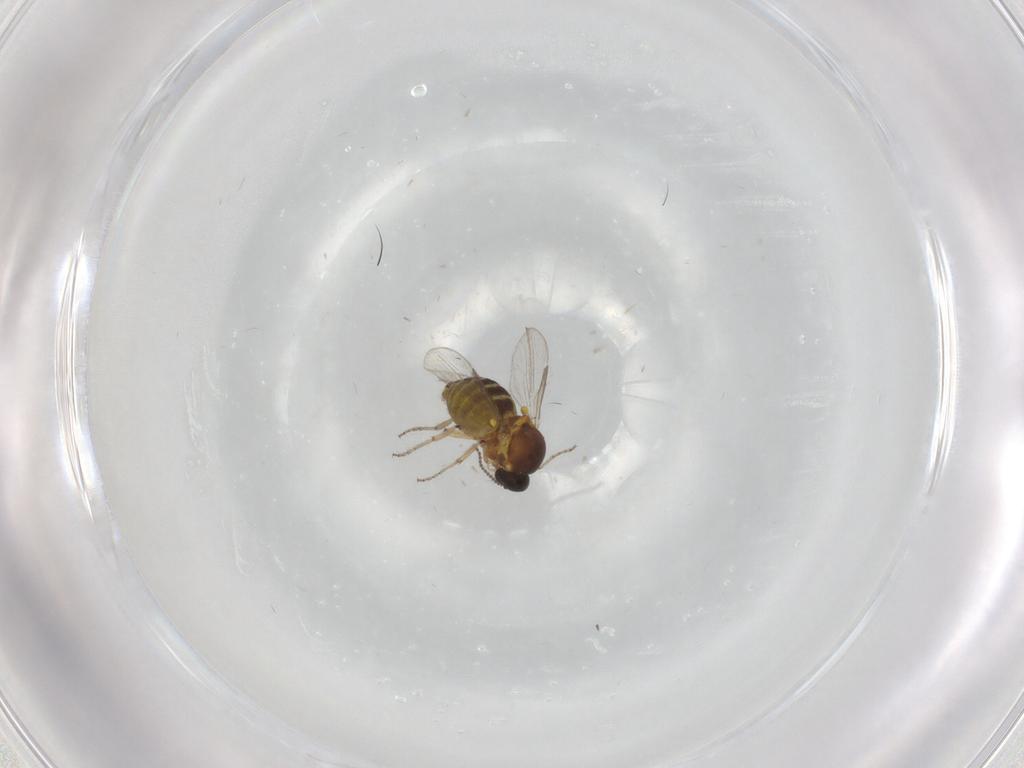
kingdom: Animalia
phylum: Arthropoda
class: Insecta
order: Diptera
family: Ceratopogonidae
